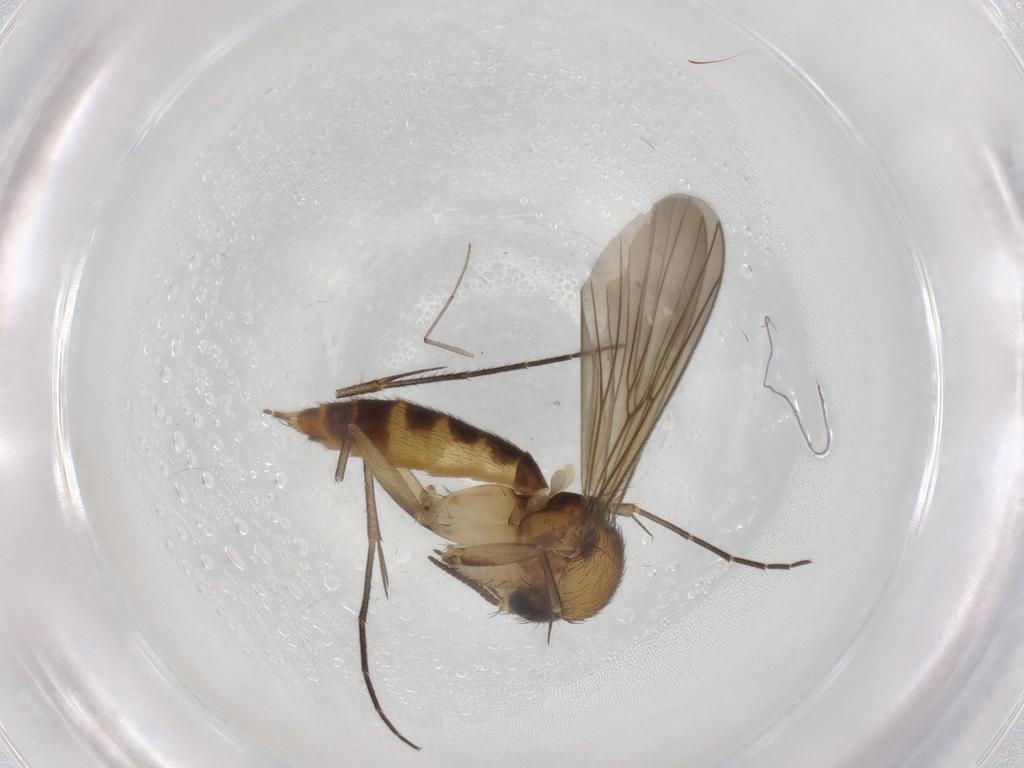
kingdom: Animalia
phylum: Arthropoda
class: Insecta
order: Diptera
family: Mycetophilidae
